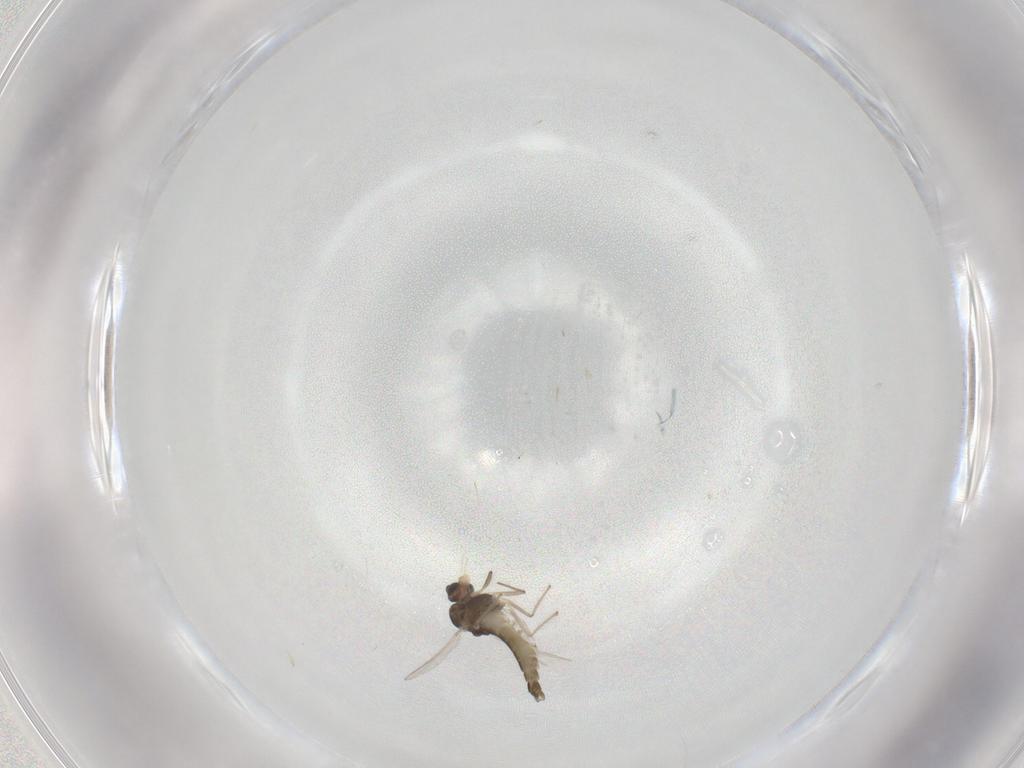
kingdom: Animalia
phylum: Arthropoda
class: Insecta
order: Diptera
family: Chironomidae
